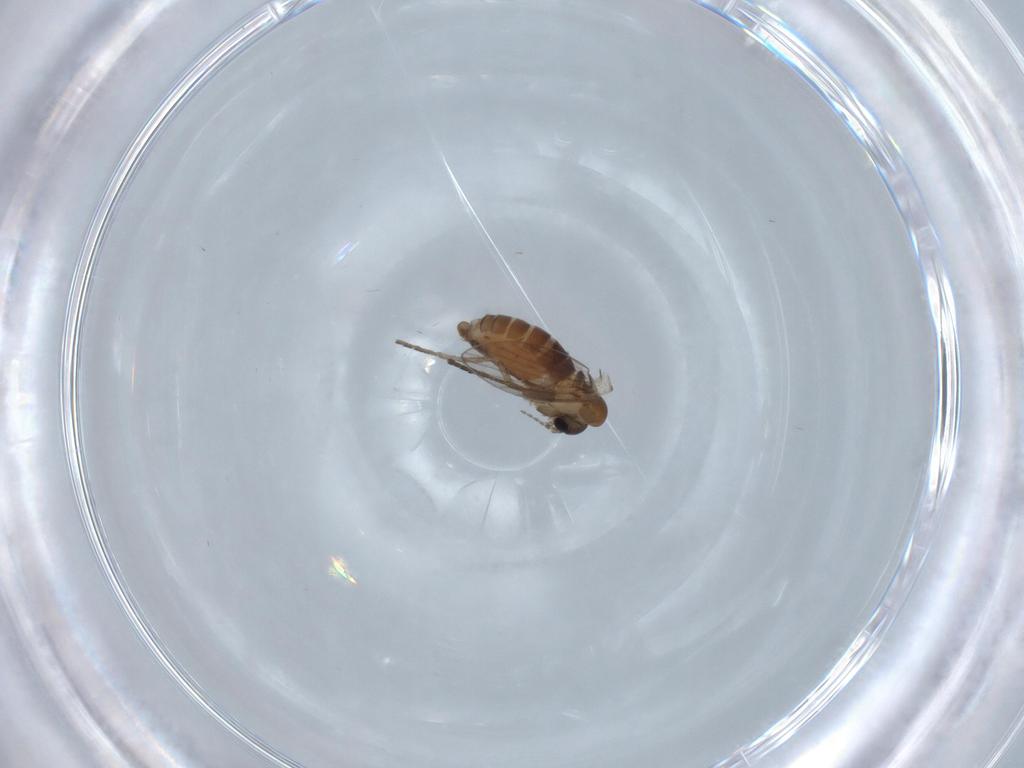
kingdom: Animalia
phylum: Arthropoda
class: Insecta
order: Diptera
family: Psychodidae
